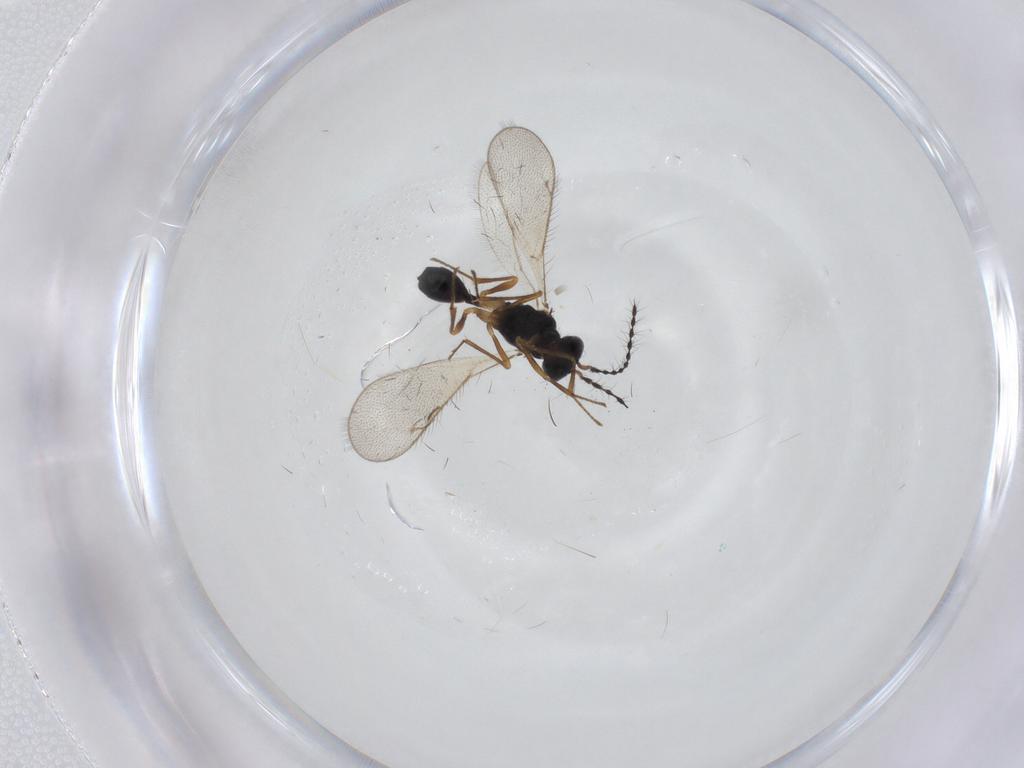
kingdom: Animalia
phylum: Arthropoda
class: Insecta
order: Hymenoptera
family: Diparidae
